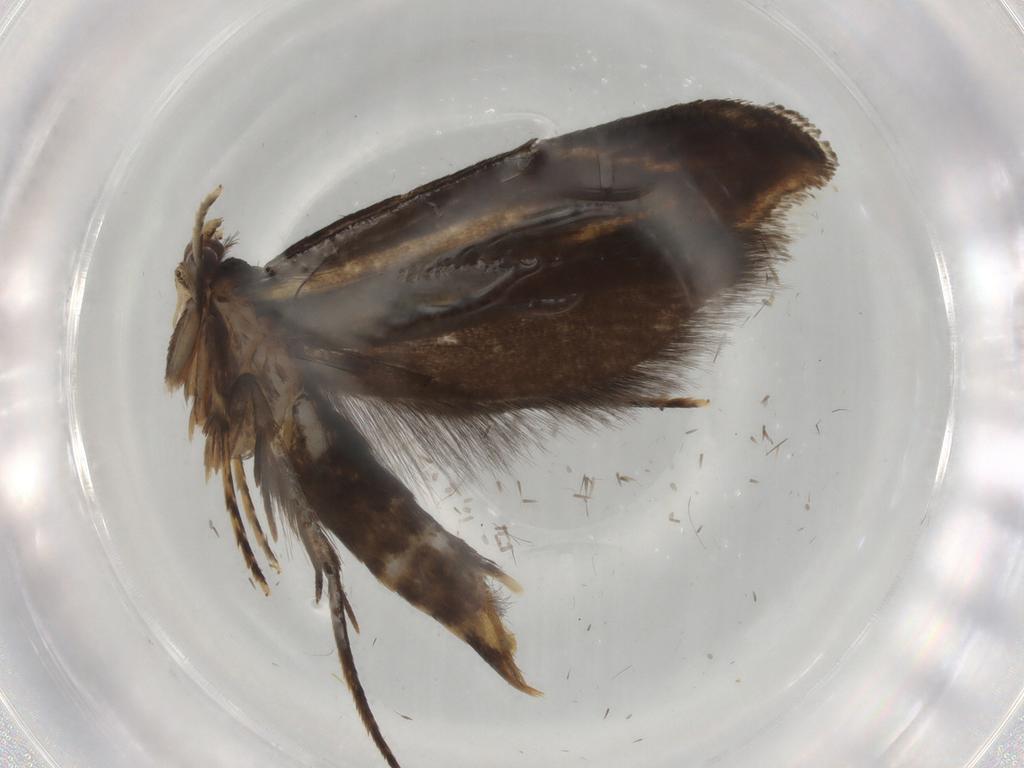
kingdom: Animalia
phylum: Arthropoda
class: Insecta
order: Lepidoptera
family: Tineidae
